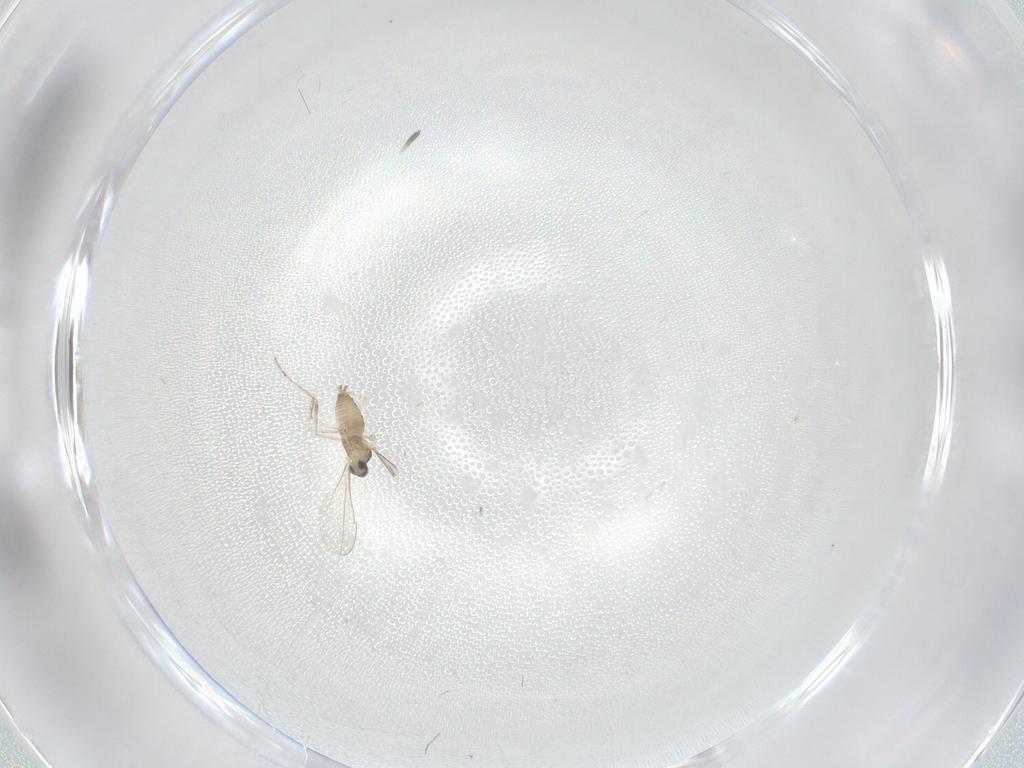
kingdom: Animalia
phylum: Arthropoda
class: Insecta
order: Diptera
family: Cecidomyiidae
